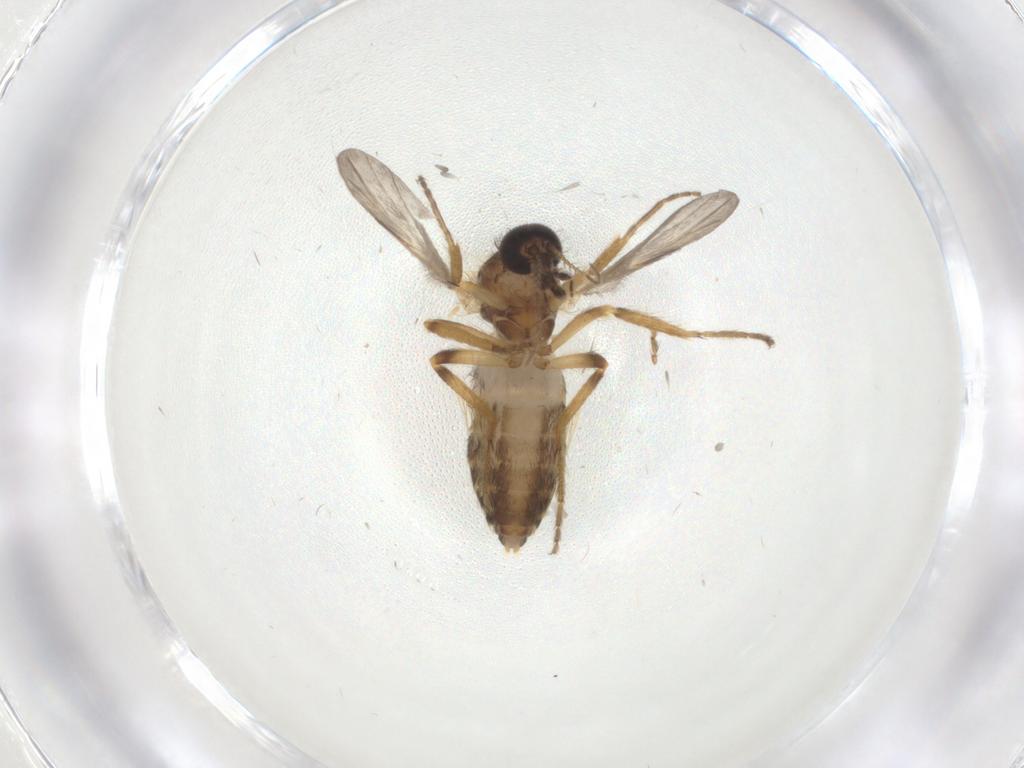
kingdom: Animalia
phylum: Arthropoda
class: Insecta
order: Diptera
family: Ceratopogonidae
